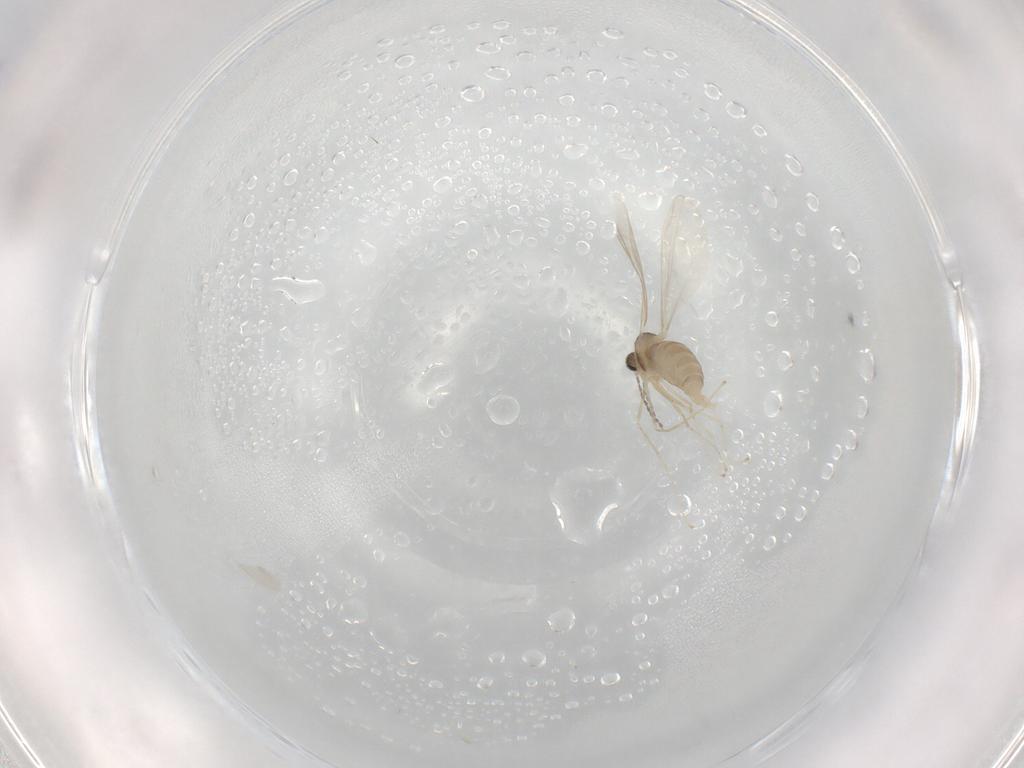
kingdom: Animalia
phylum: Arthropoda
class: Insecta
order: Diptera
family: Cecidomyiidae
